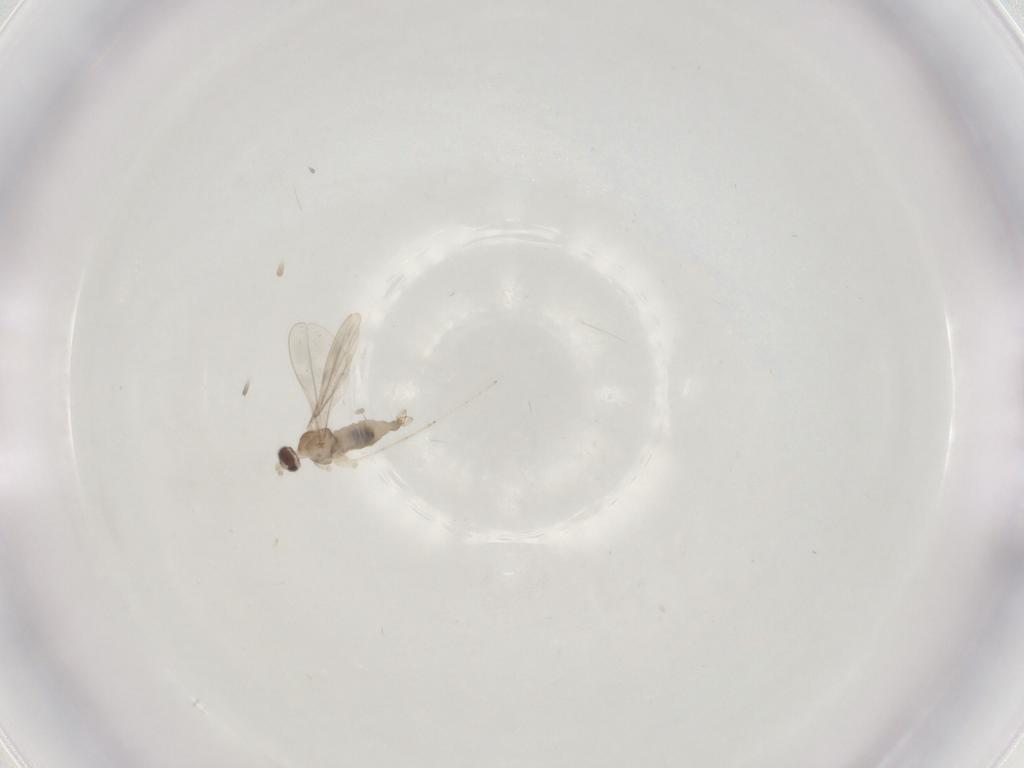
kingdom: Animalia
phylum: Arthropoda
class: Insecta
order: Diptera
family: Cecidomyiidae
